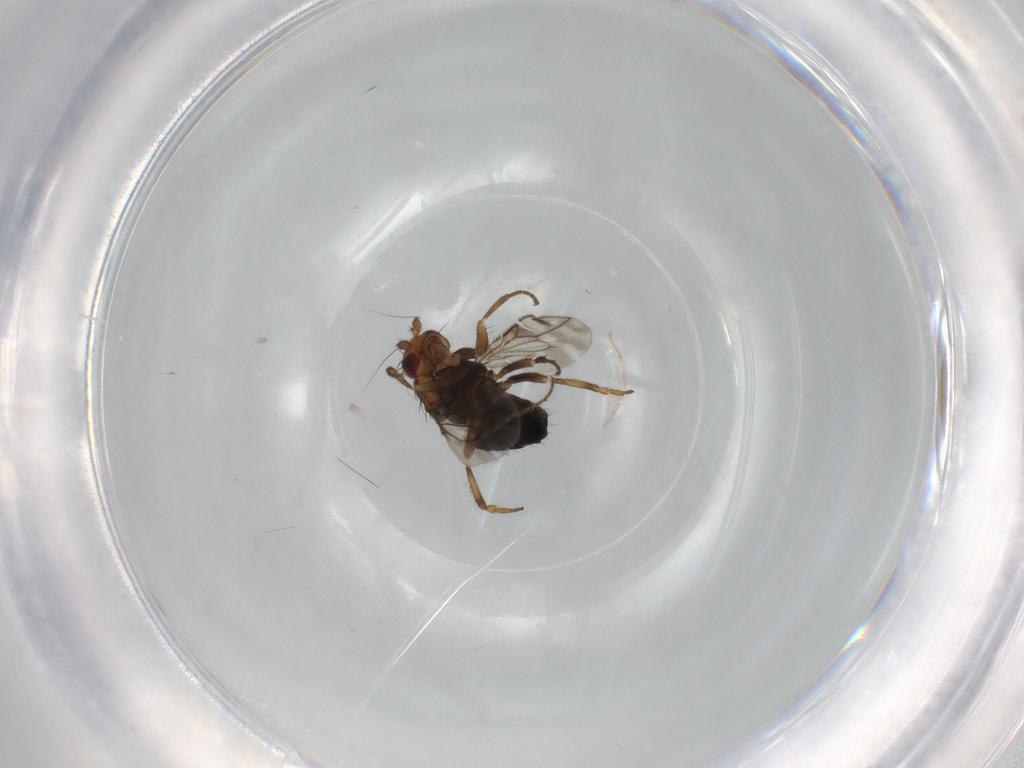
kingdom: Animalia
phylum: Arthropoda
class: Insecta
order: Diptera
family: Sphaeroceridae
